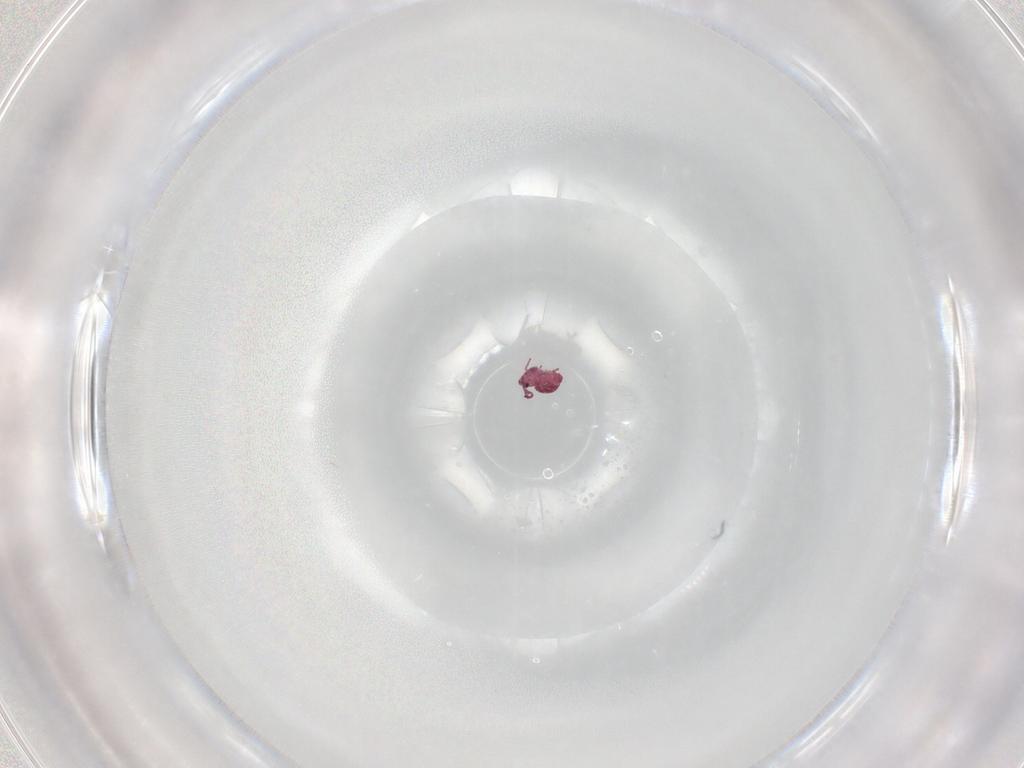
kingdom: Animalia
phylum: Arthropoda
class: Collembola
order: Symphypleona
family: Sminthurididae
